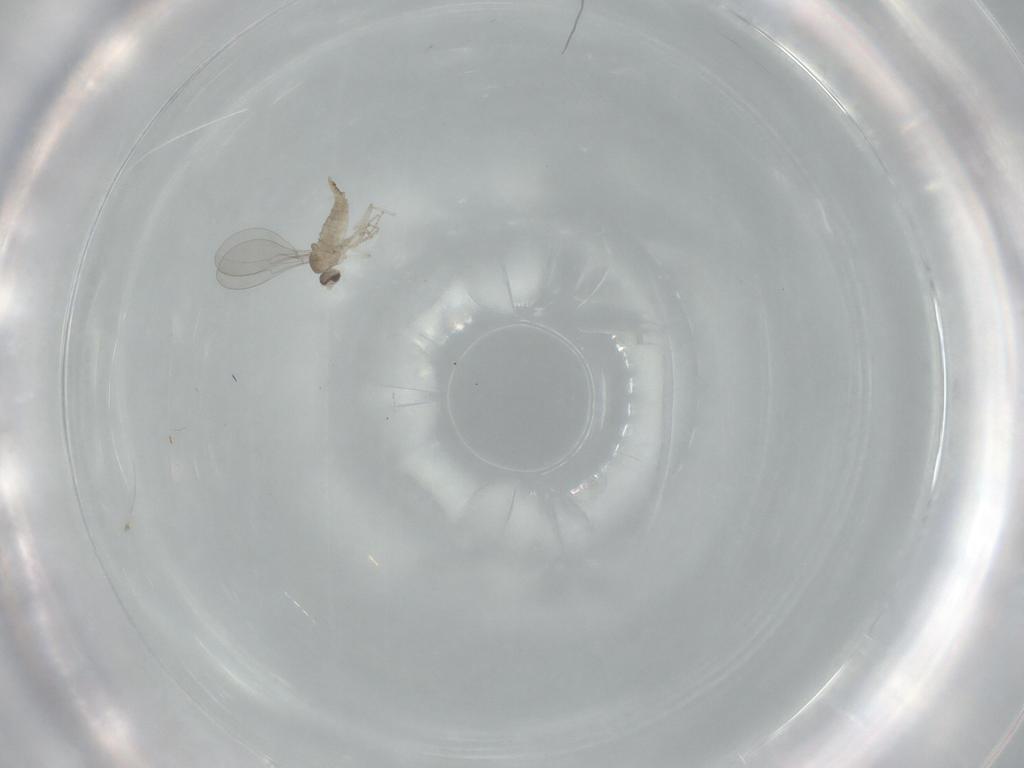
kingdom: Animalia
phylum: Arthropoda
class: Insecta
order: Diptera
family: Cecidomyiidae
